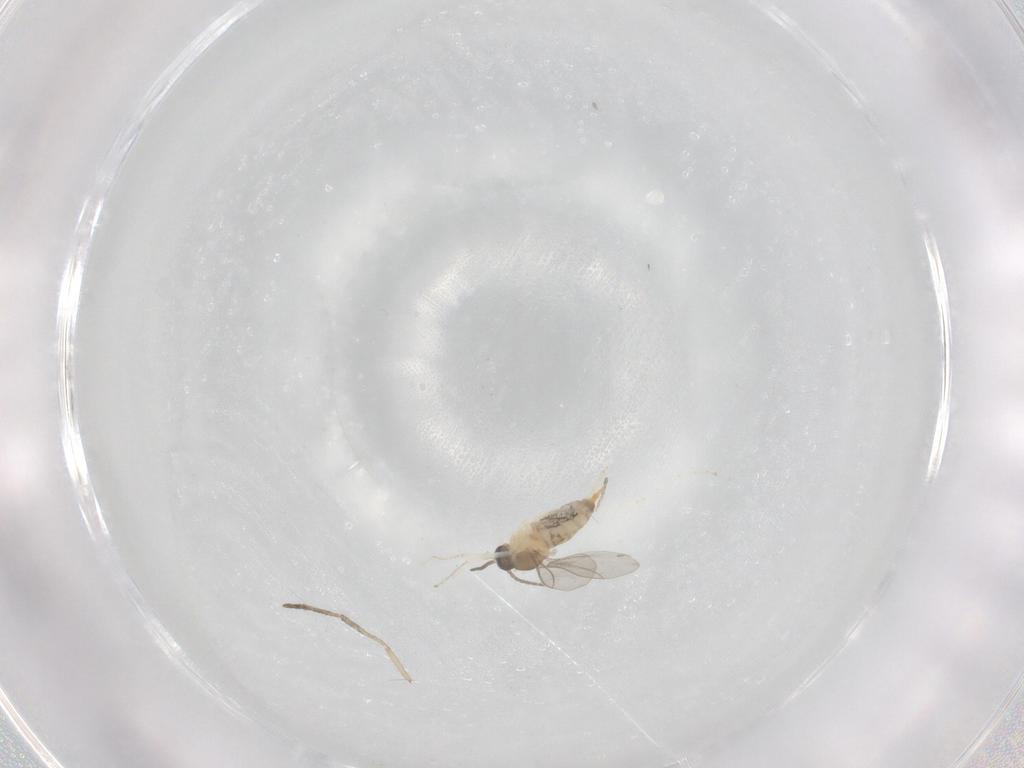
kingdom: Animalia
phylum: Arthropoda
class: Insecta
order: Diptera
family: Cecidomyiidae
